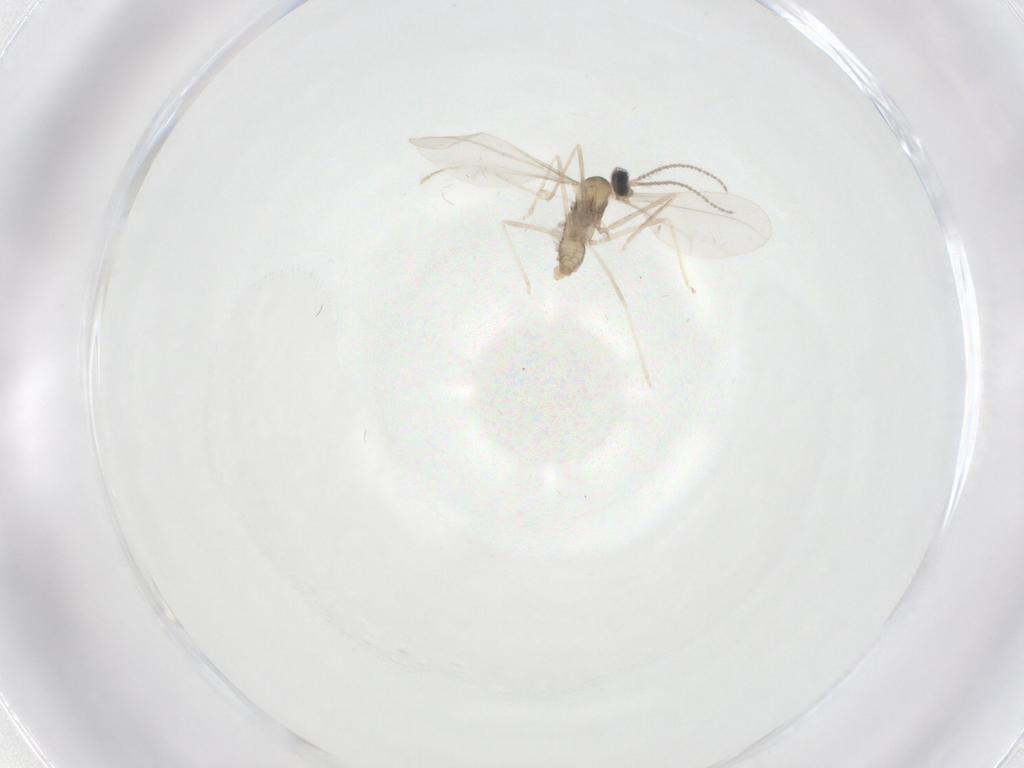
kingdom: Animalia
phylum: Arthropoda
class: Insecta
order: Diptera
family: Cecidomyiidae
